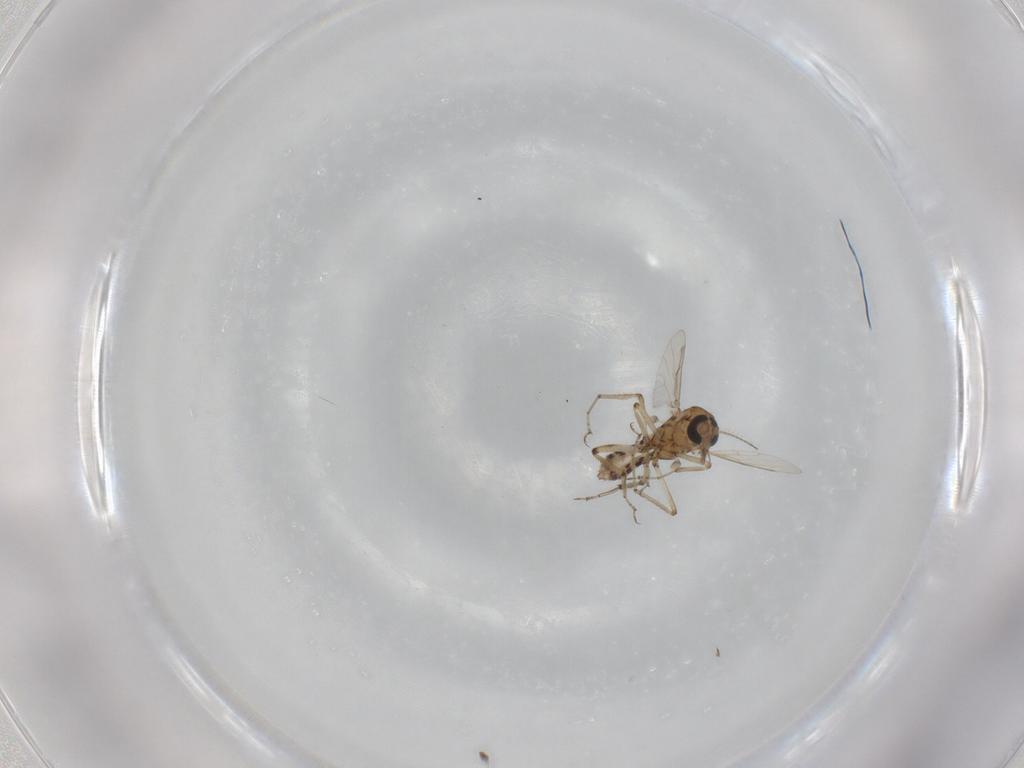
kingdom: Animalia
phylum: Arthropoda
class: Insecta
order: Diptera
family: Ceratopogonidae
